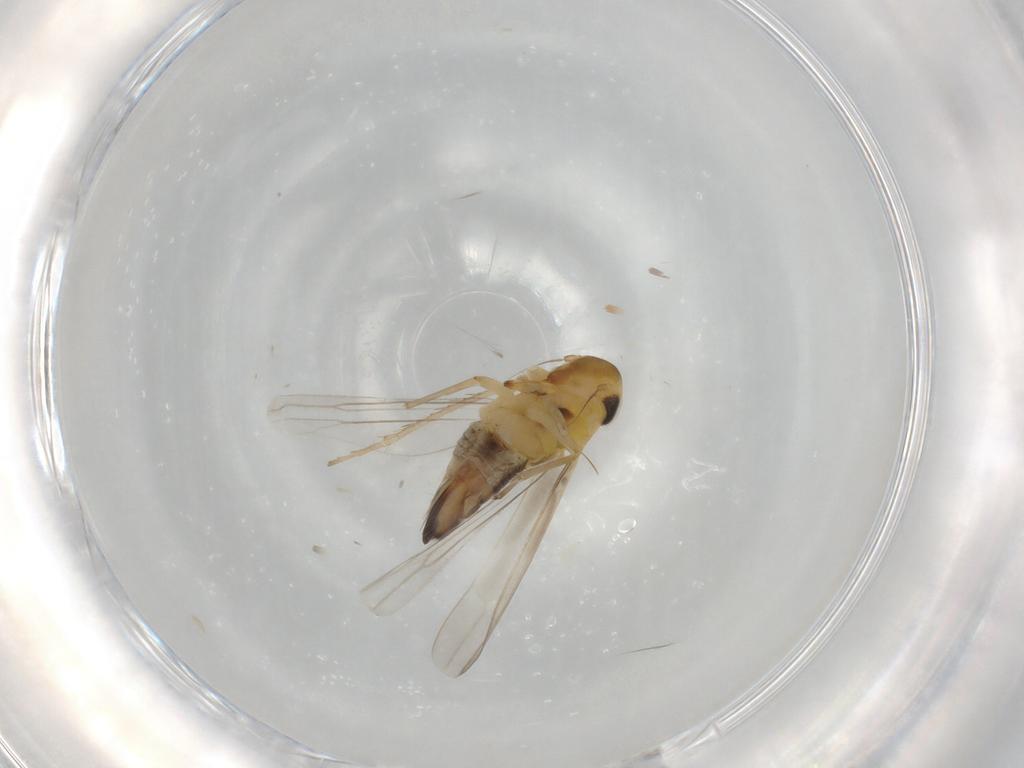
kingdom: Animalia
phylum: Arthropoda
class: Insecta
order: Hemiptera
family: Cicadellidae
